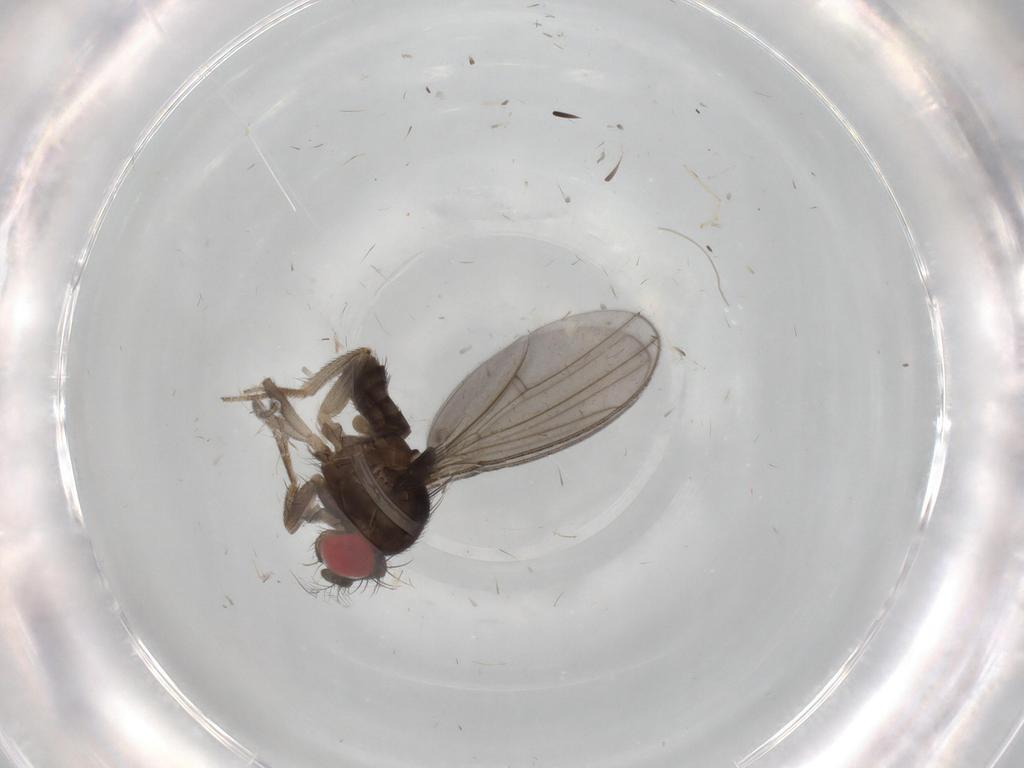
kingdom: Animalia
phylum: Arthropoda
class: Insecta
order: Diptera
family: Drosophilidae
